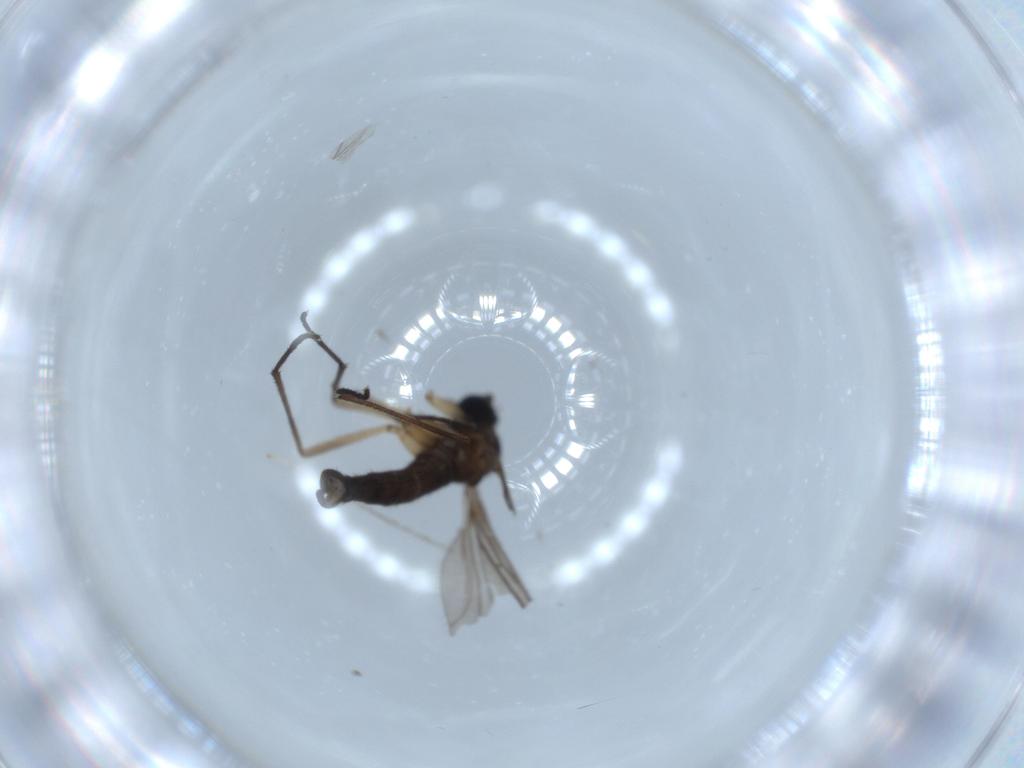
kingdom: Animalia
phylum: Arthropoda
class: Insecta
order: Diptera
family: Sciaridae
